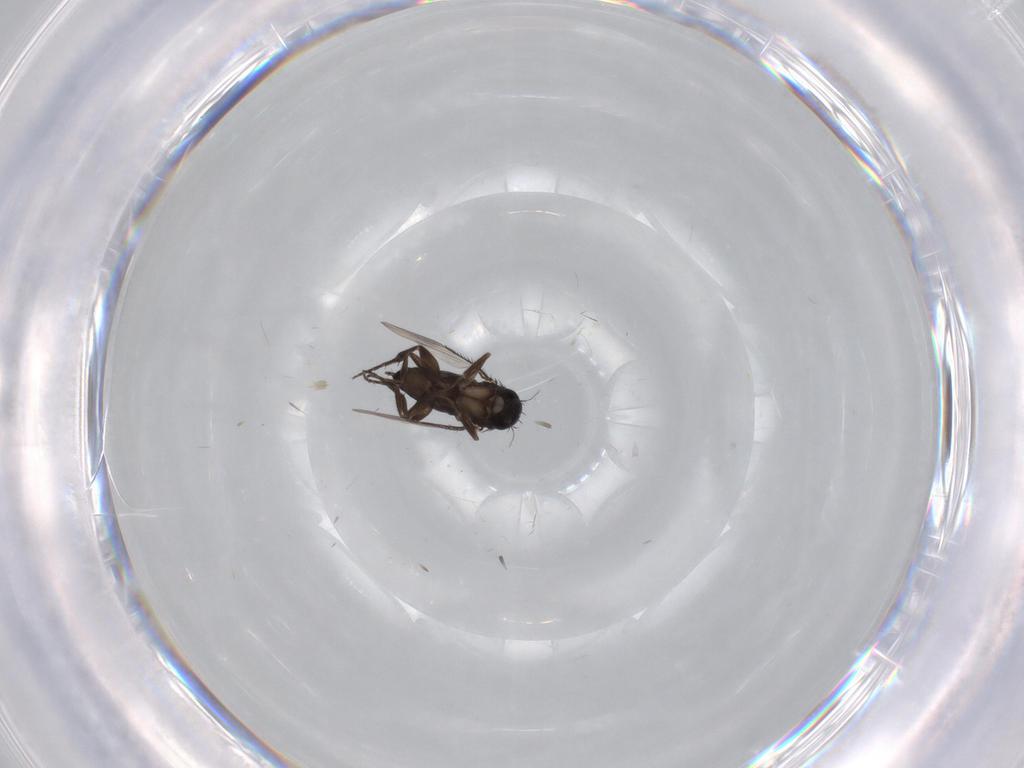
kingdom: Animalia
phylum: Arthropoda
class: Insecta
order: Diptera
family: Phoridae
